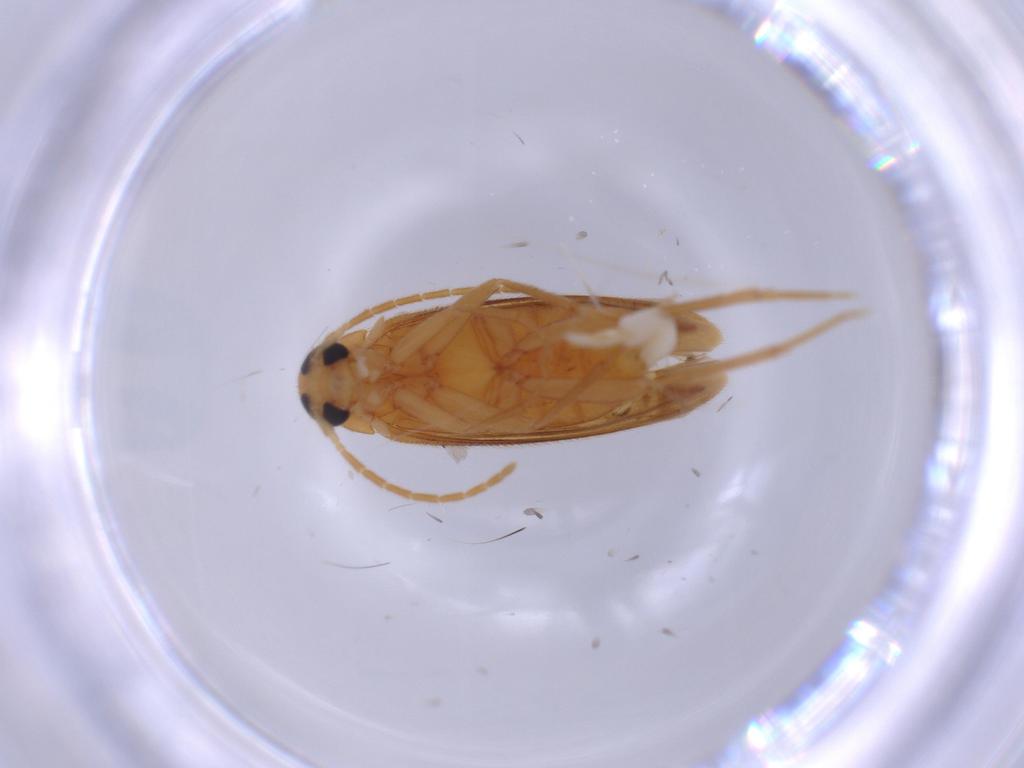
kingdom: Animalia
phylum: Arthropoda
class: Insecta
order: Coleoptera
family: Scraptiidae
